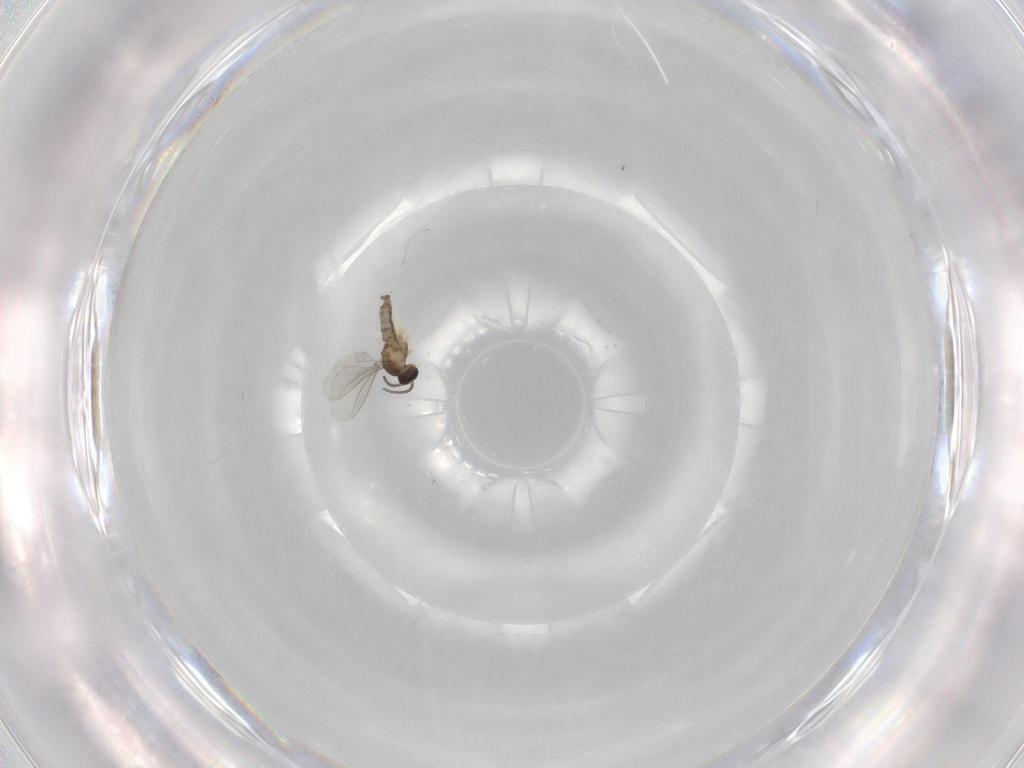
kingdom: Animalia
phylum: Arthropoda
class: Insecta
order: Diptera
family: Cecidomyiidae
